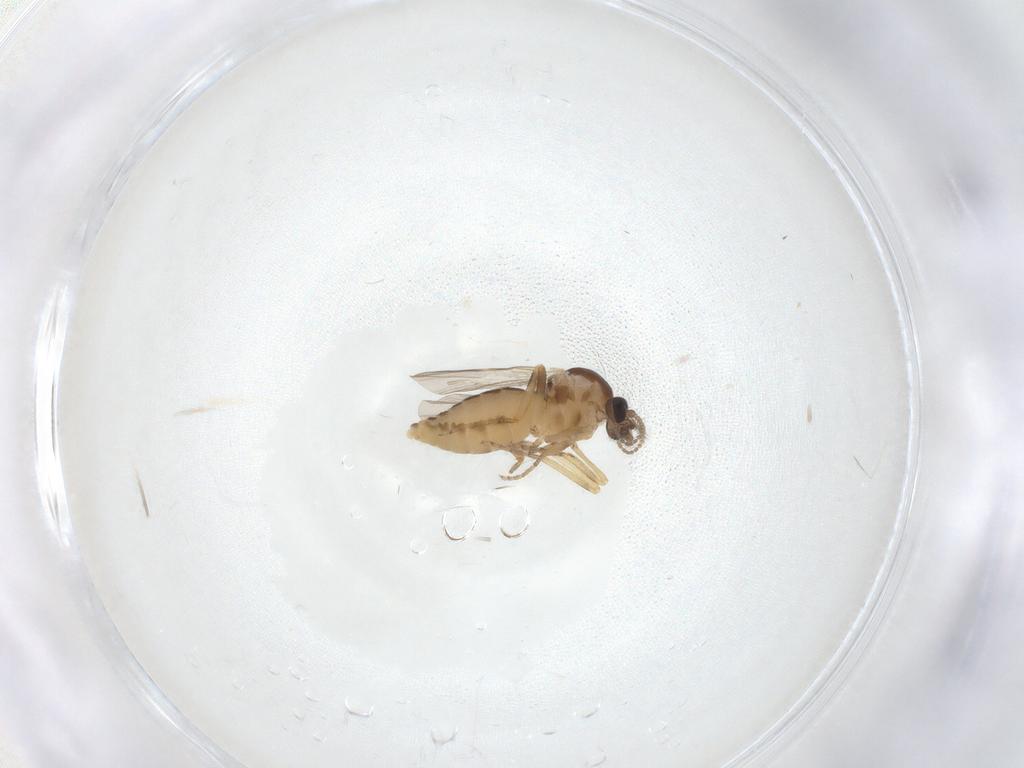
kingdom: Animalia
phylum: Arthropoda
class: Insecta
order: Diptera
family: Ceratopogonidae
